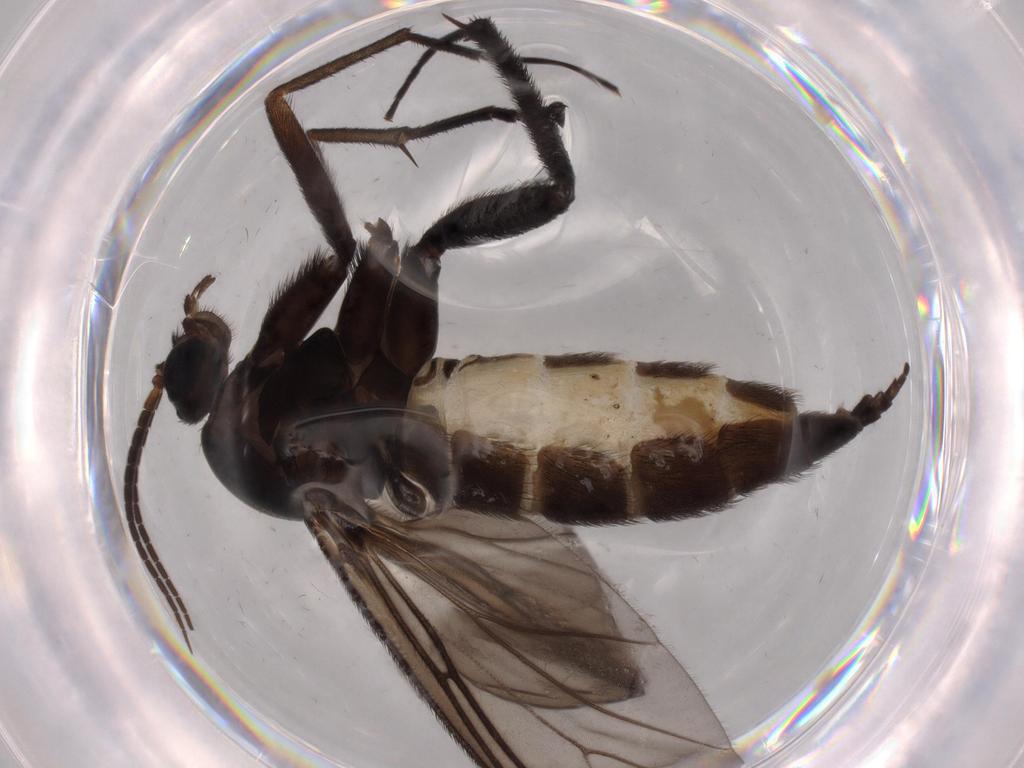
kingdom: Animalia
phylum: Arthropoda
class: Insecta
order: Diptera
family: Sciaridae
